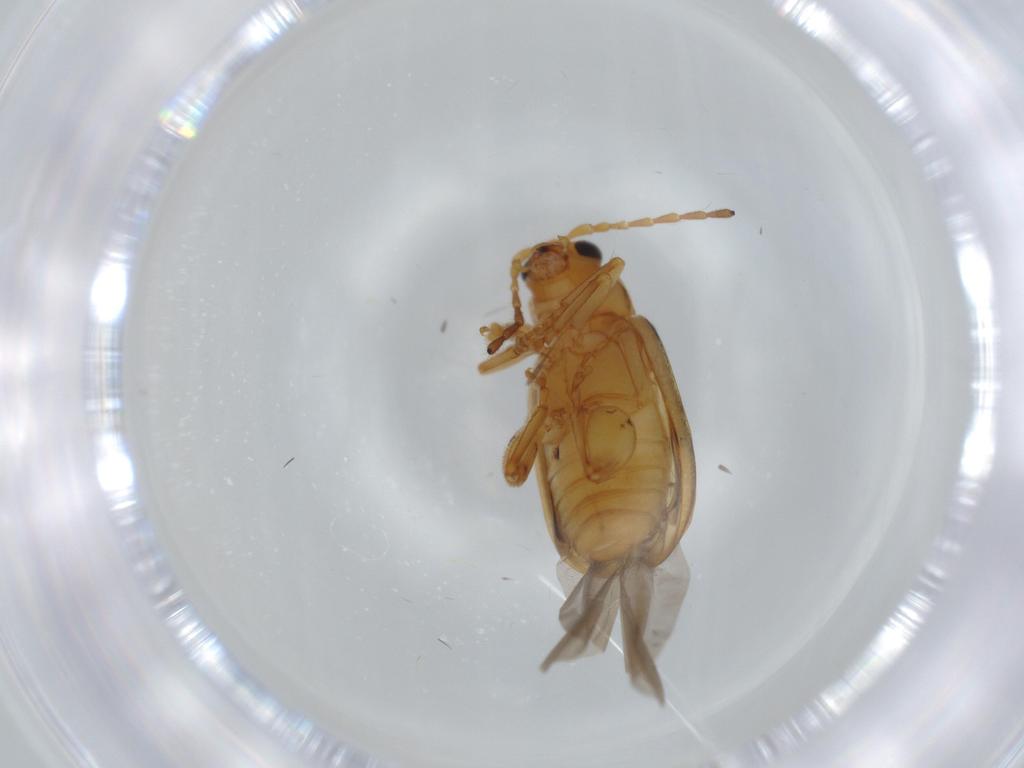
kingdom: Animalia
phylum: Arthropoda
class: Insecta
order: Coleoptera
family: Chrysomelidae
